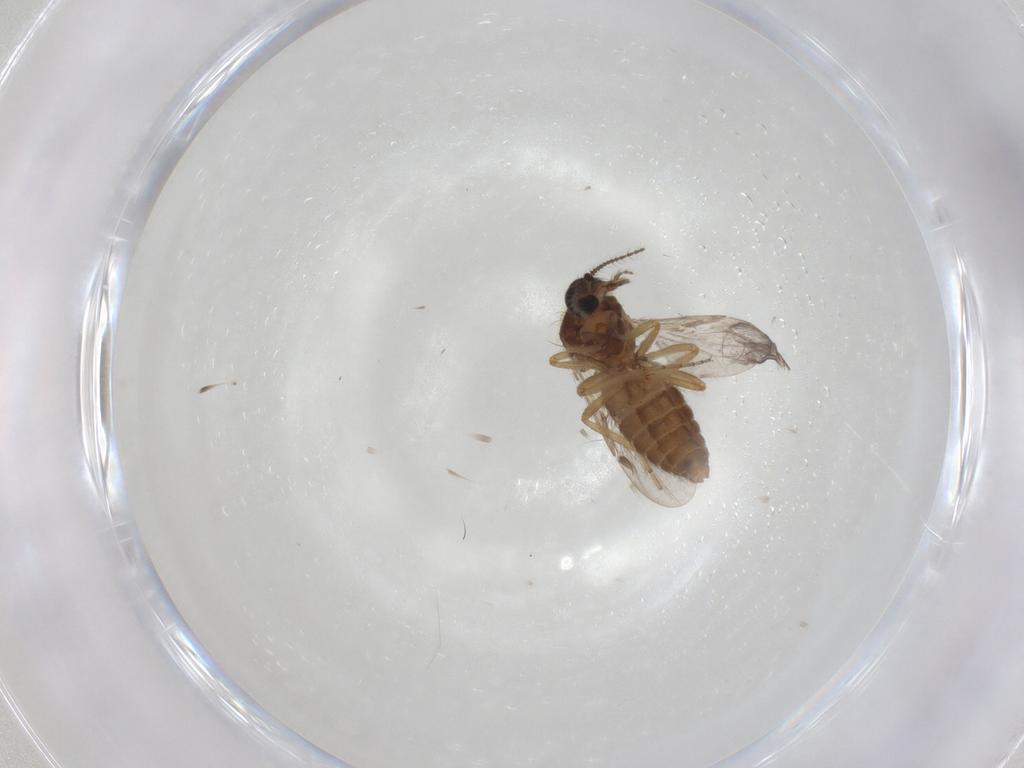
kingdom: Animalia
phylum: Arthropoda
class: Insecta
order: Diptera
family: Ceratopogonidae
